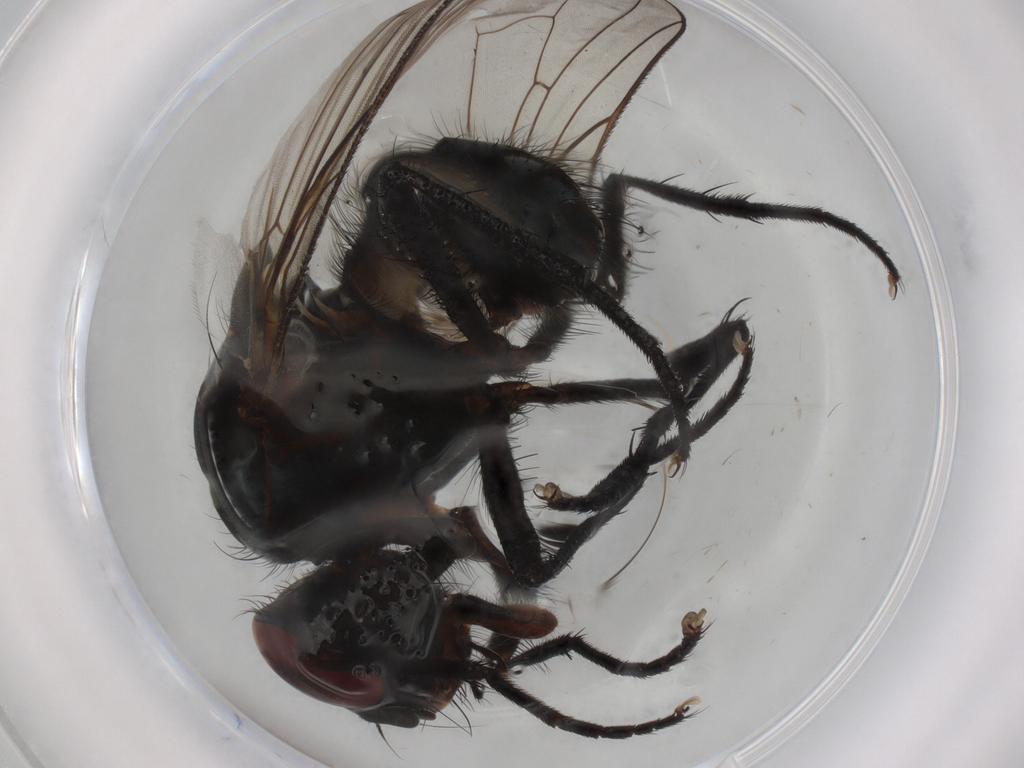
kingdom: Animalia
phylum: Arthropoda
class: Insecta
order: Diptera
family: Anthomyiidae
